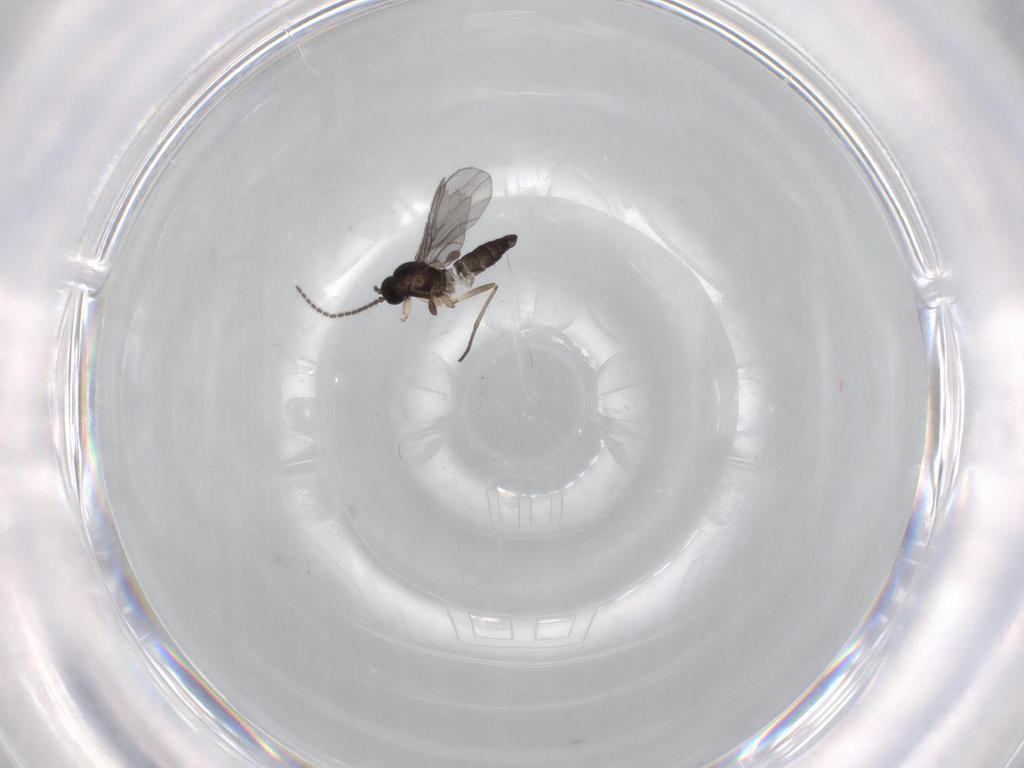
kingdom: Animalia
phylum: Arthropoda
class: Insecta
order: Diptera
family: Sciaridae
